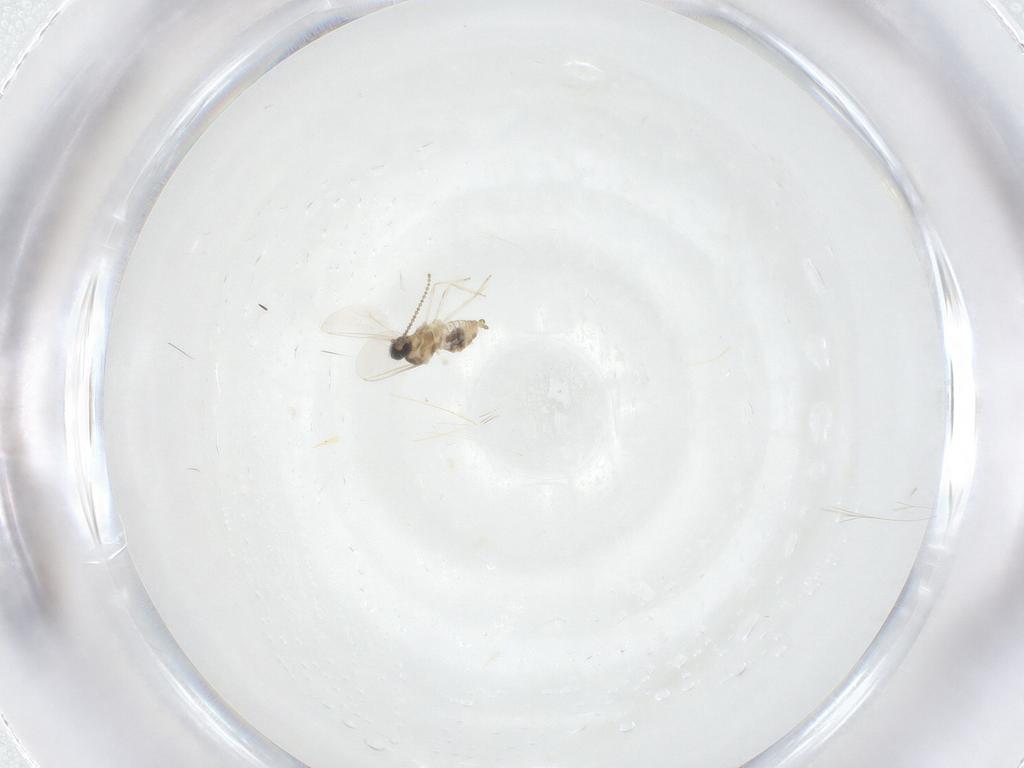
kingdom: Animalia
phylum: Arthropoda
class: Insecta
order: Diptera
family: Cecidomyiidae
